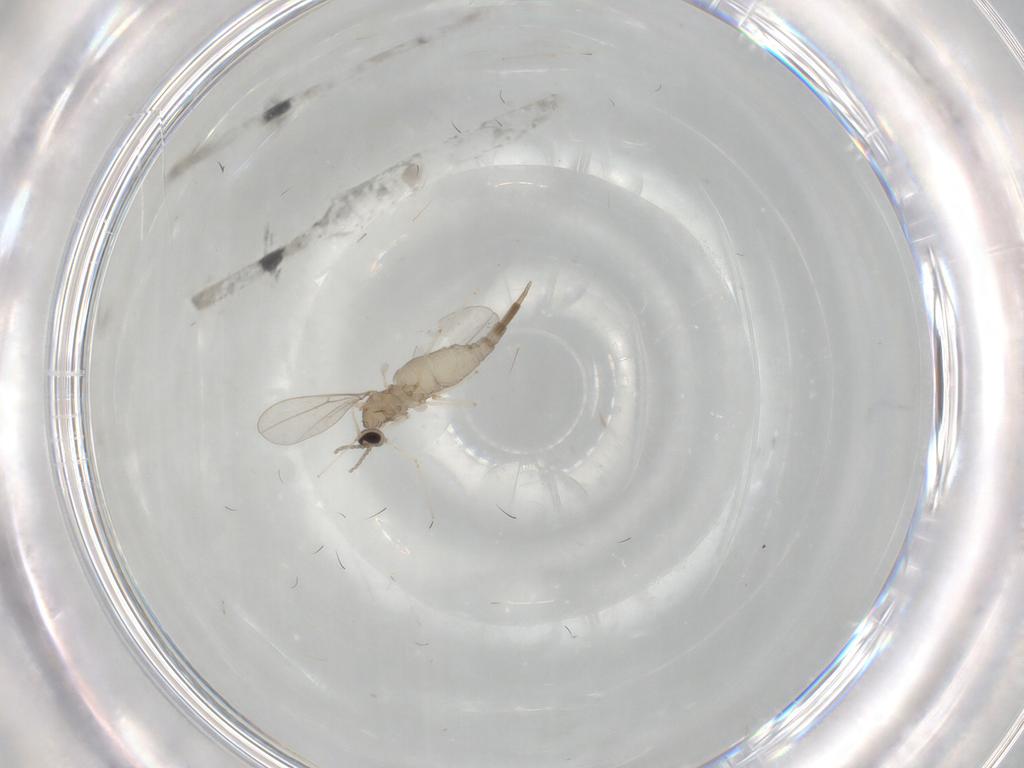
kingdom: Animalia
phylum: Arthropoda
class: Insecta
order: Diptera
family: Cecidomyiidae
